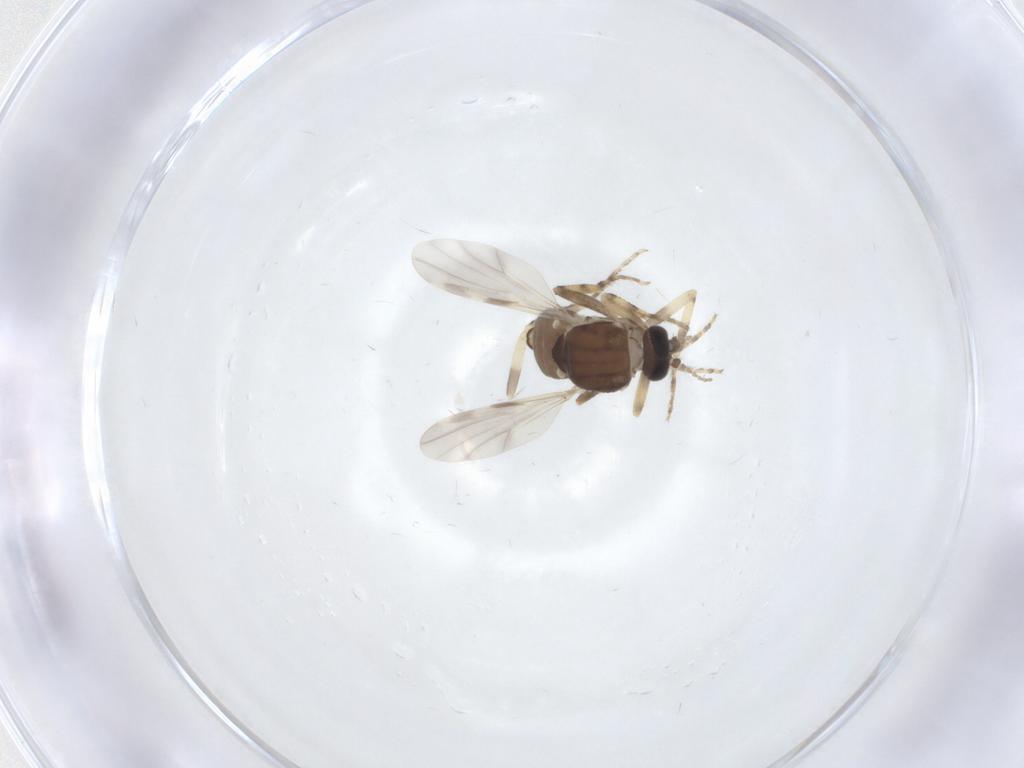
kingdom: Animalia
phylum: Arthropoda
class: Insecta
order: Diptera
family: Ceratopogonidae
